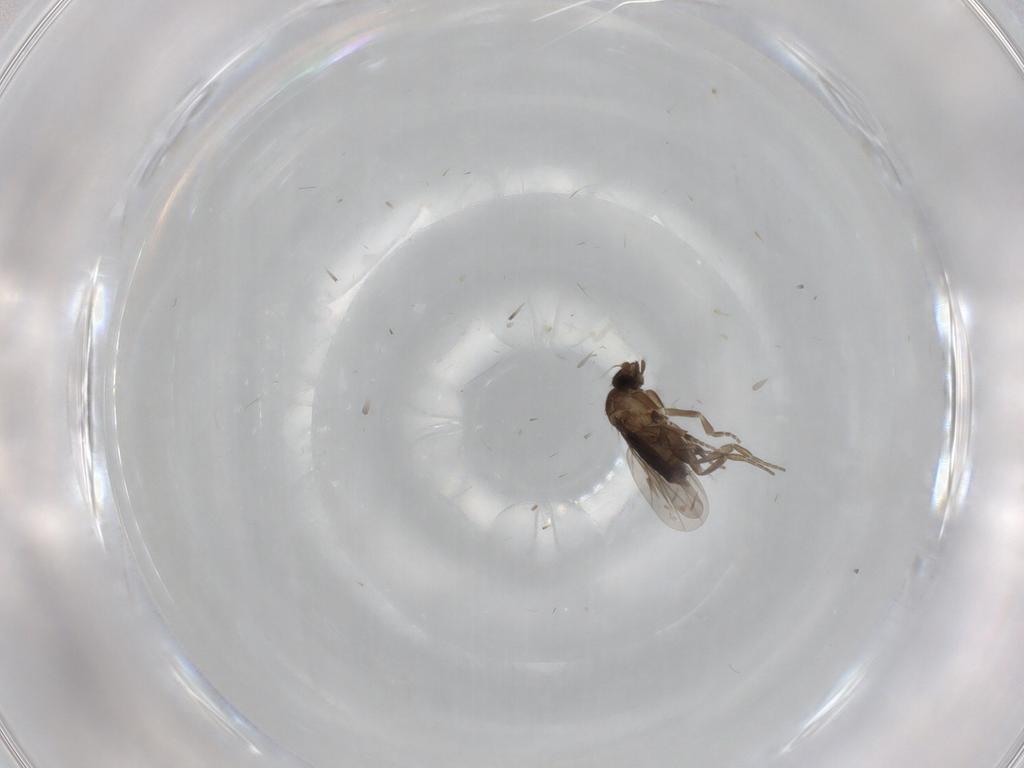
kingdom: Animalia
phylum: Arthropoda
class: Insecta
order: Diptera
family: Phoridae
